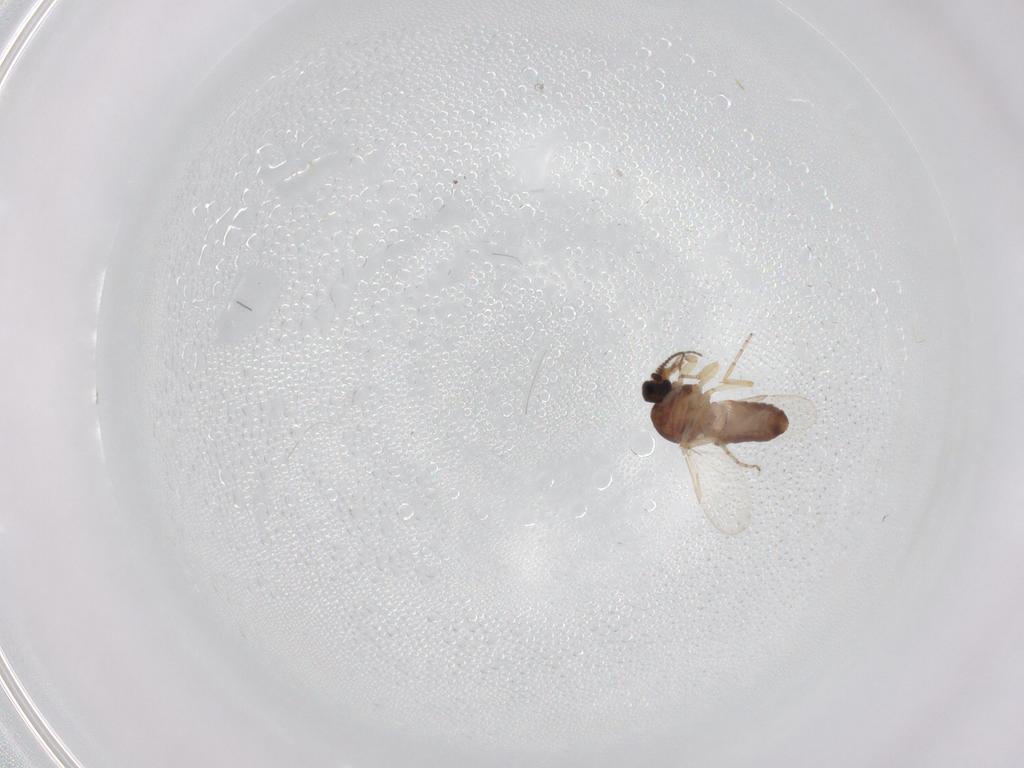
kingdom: Animalia
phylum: Arthropoda
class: Insecta
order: Diptera
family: Ceratopogonidae
